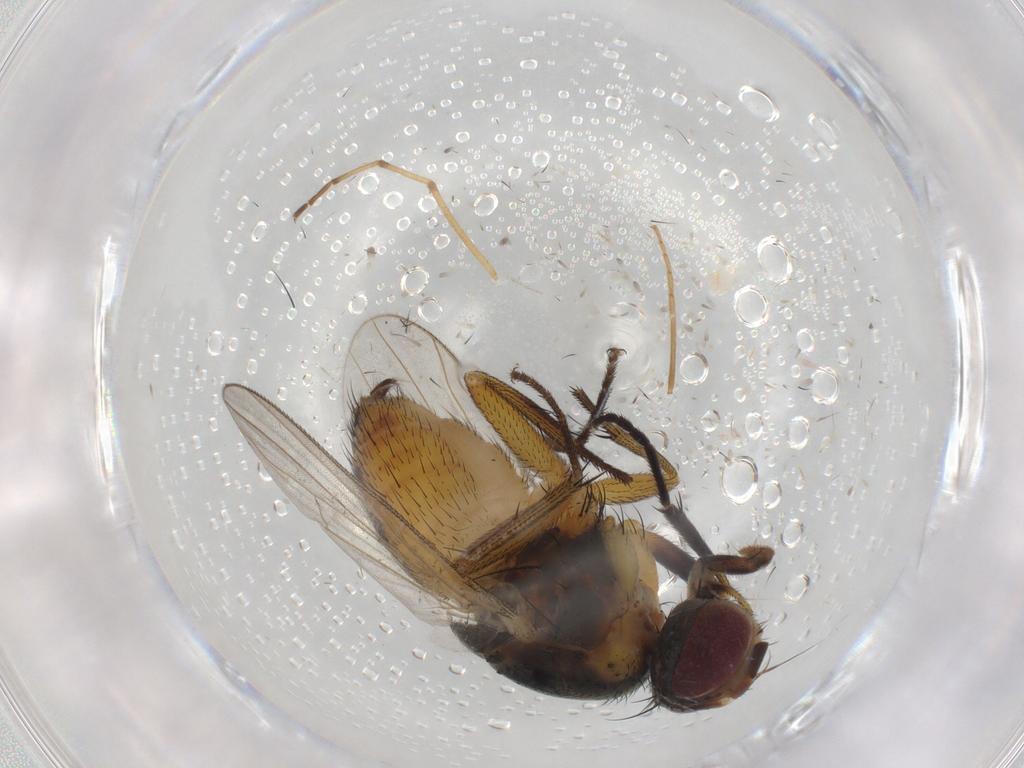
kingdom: Animalia
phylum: Arthropoda
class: Insecta
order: Diptera
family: Muscidae
